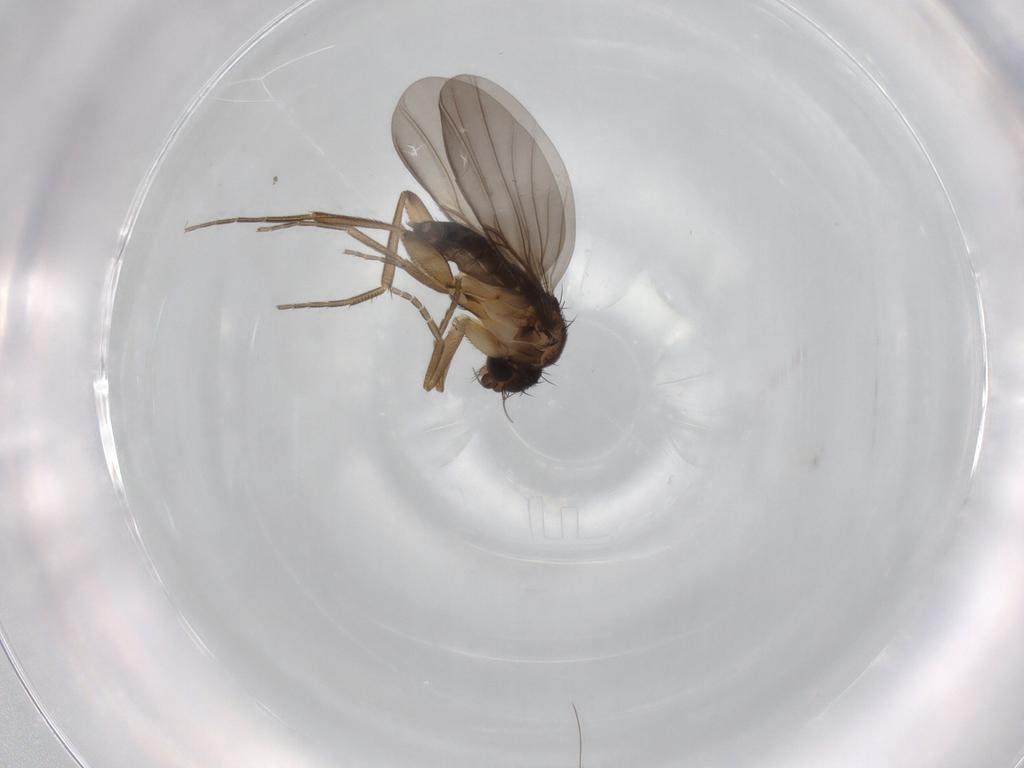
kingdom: Animalia
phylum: Arthropoda
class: Insecta
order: Diptera
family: Phoridae
